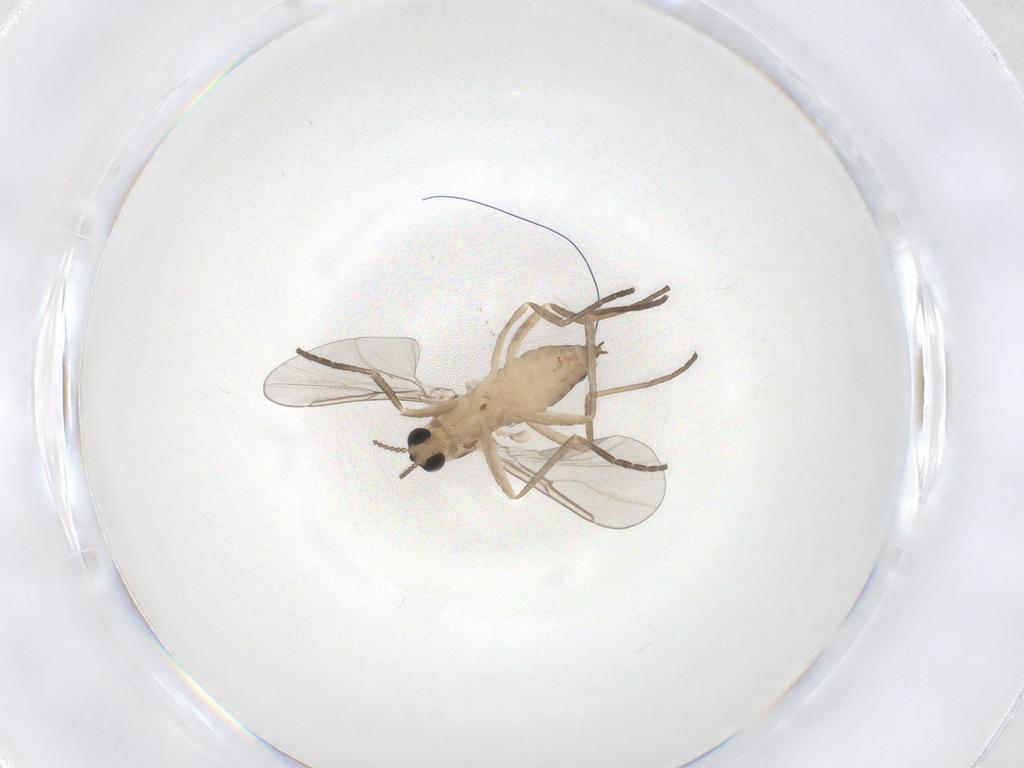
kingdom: Animalia
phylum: Arthropoda
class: Insecta
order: Diptera
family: Cecidomyiidae
